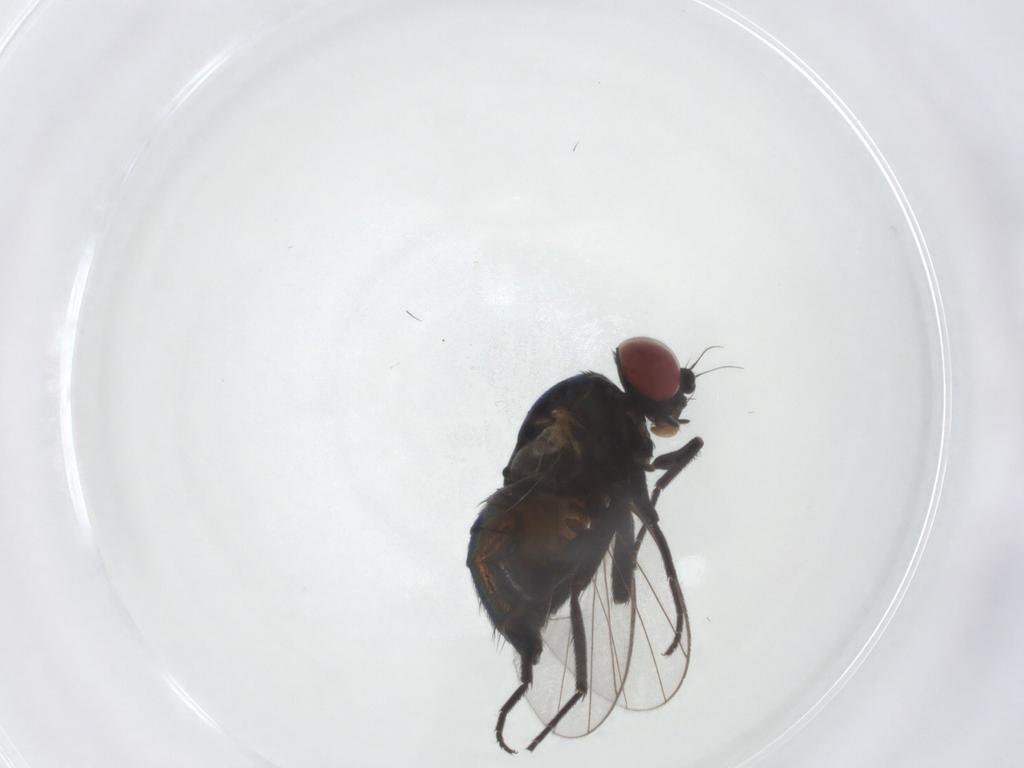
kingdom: Animalia
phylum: Arthropoda
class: Insecta
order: Diptera
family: Agromyzidae
